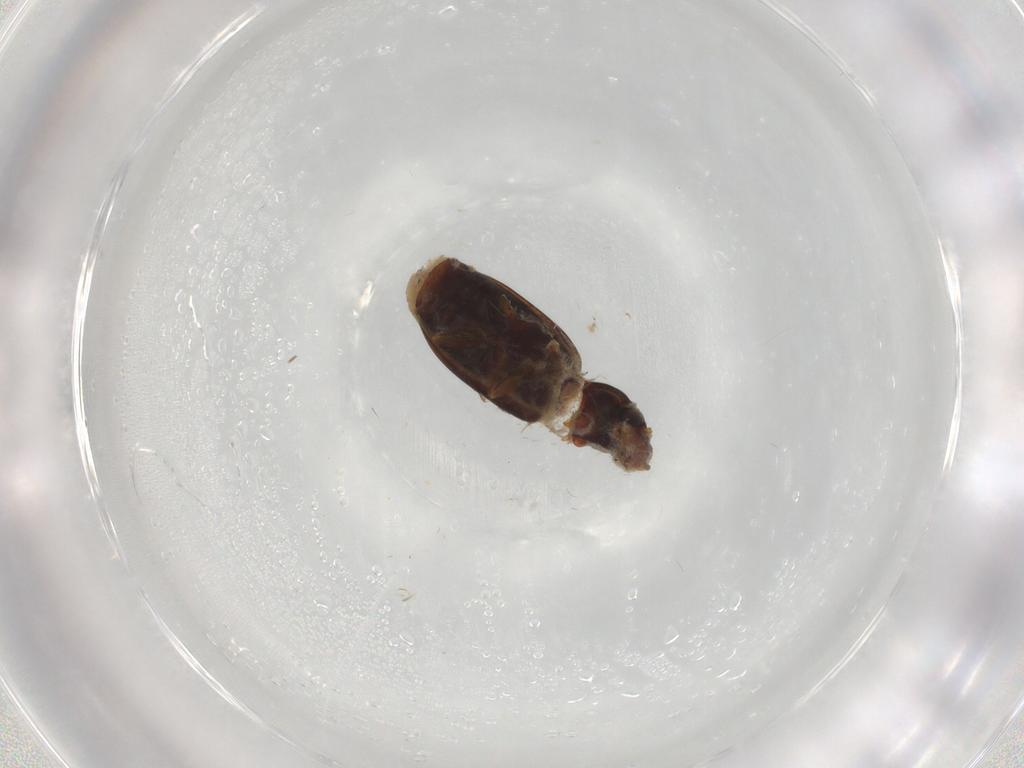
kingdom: Animalia
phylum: Arthropoda
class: Insecta
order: Coleoptera
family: Carabidae
